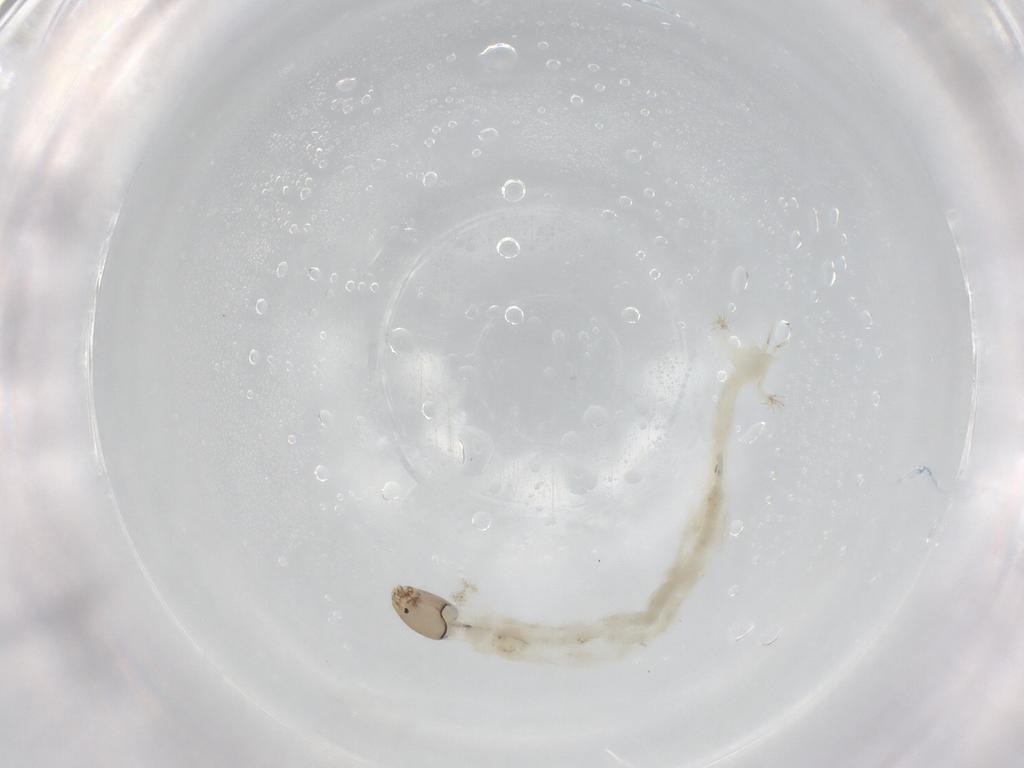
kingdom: Animalia
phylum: Arthropoda
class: Insecta
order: Diptera
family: Chironomidae
